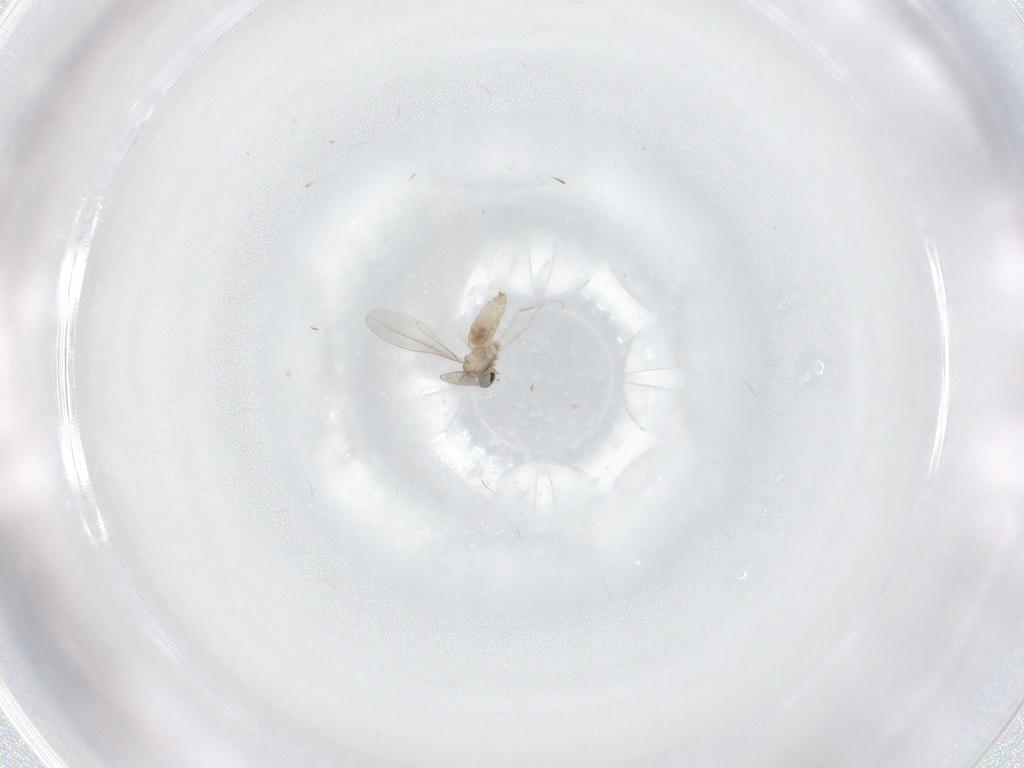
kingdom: Animalia
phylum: Arthropoda
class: Insecta
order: Diptera
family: Cecidomyiidae
